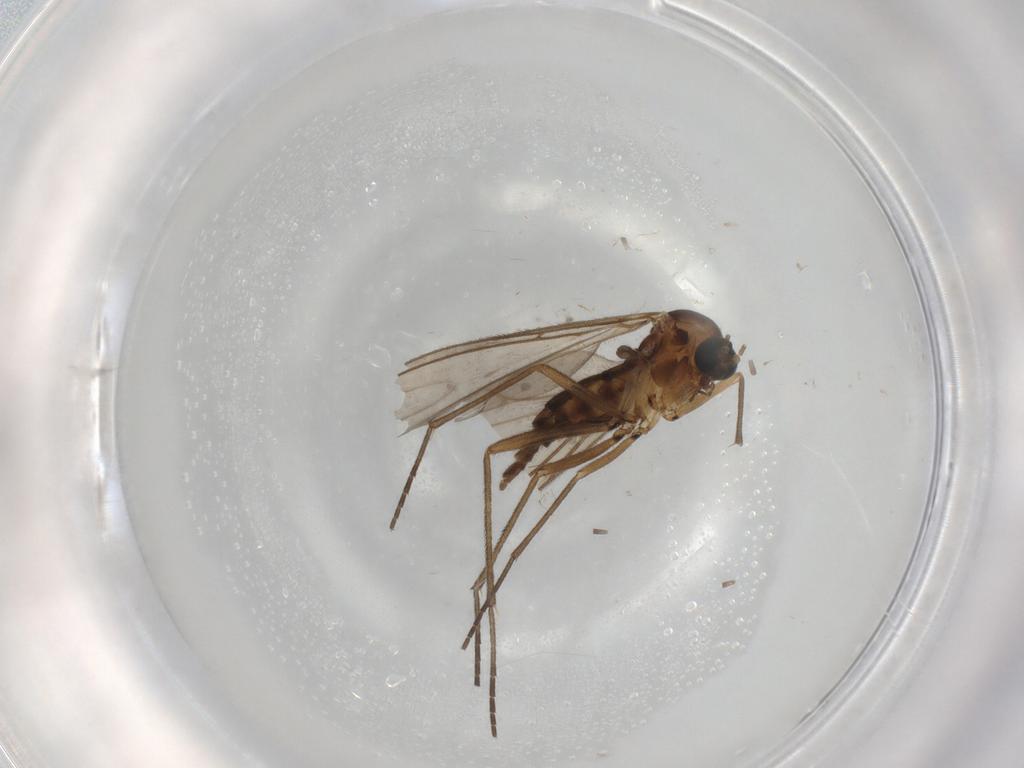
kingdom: Animalia
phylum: Arthropoda
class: Insecta
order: Diptera
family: Sciaridae
